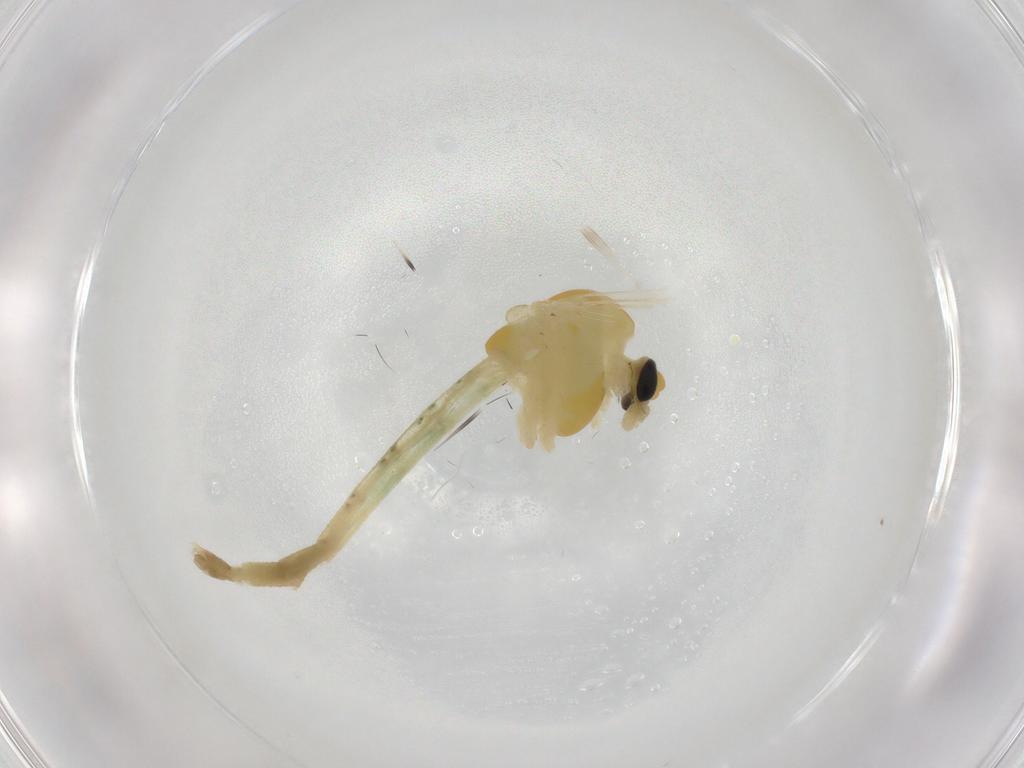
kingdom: Animalia
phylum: Arthropoda
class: Insecta
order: Diptera
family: Chironomidae
